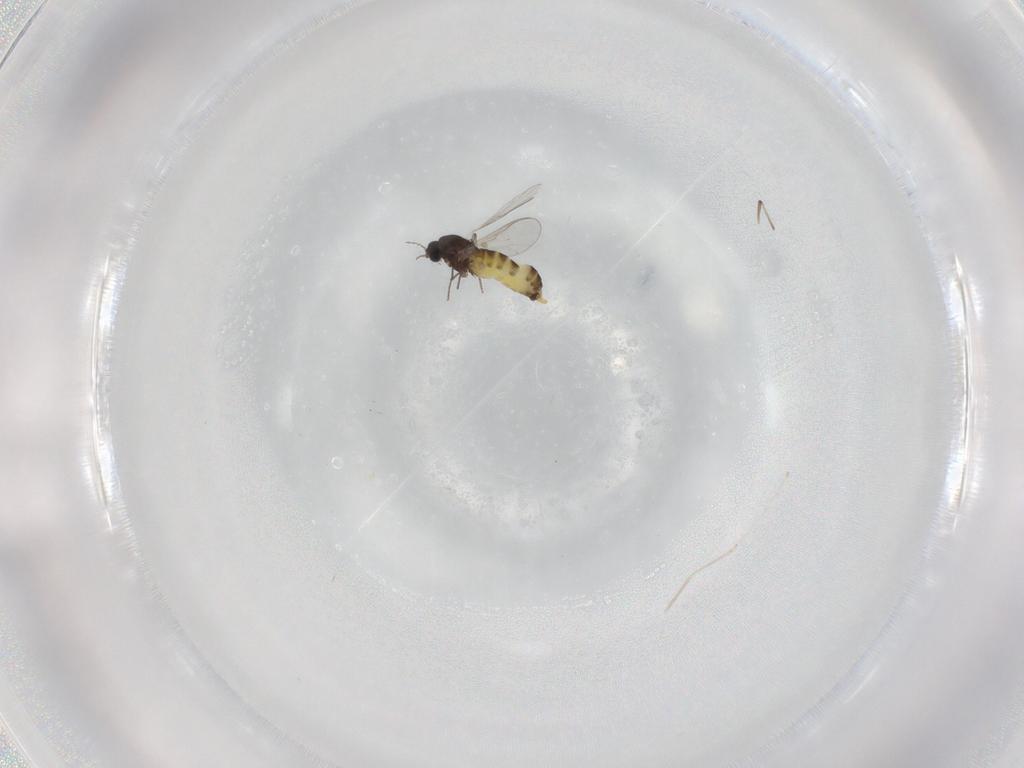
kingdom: Animalia
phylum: Arthropoda
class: Insecta
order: Diptera
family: Chironomidae
